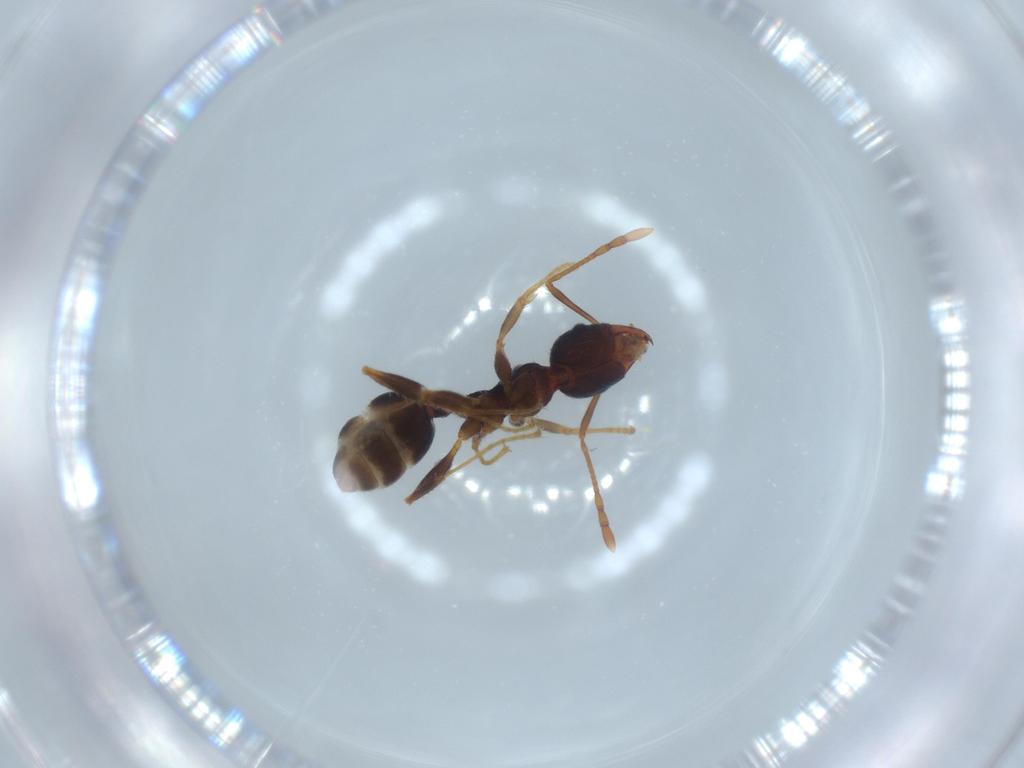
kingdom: Animalia
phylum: Arthropoda
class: Insecta
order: Hymenoptera
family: Formicidae
